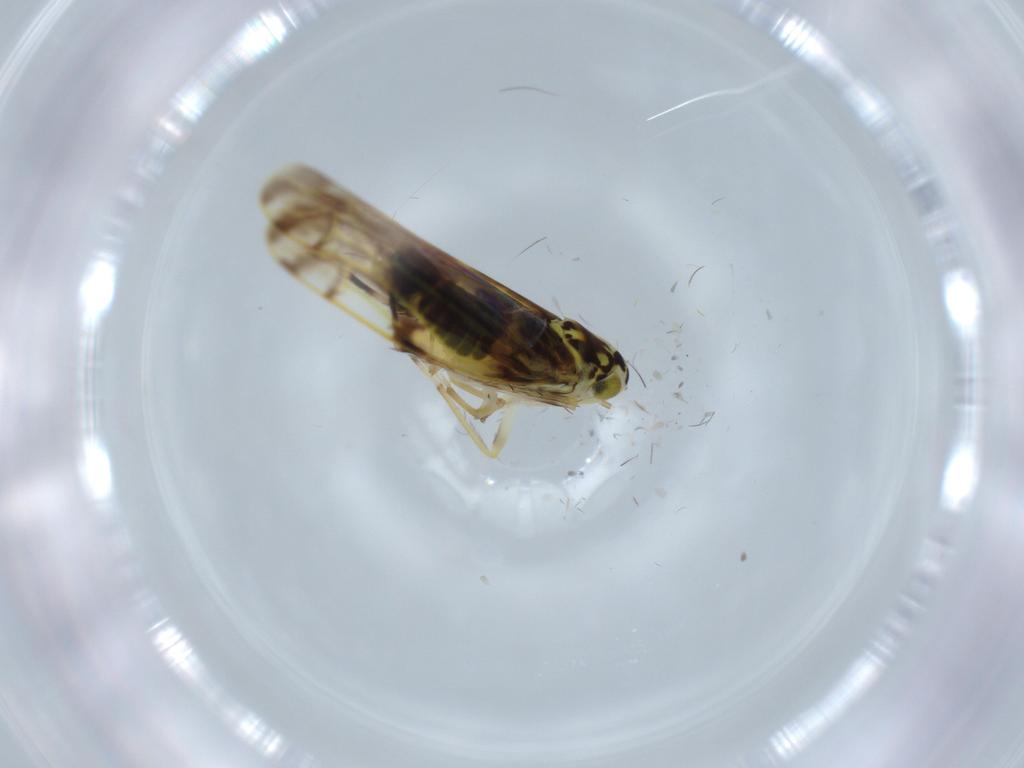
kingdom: Animalia
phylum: Arthropoda
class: Insecta
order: Hemiptera
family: Cicadellidae
